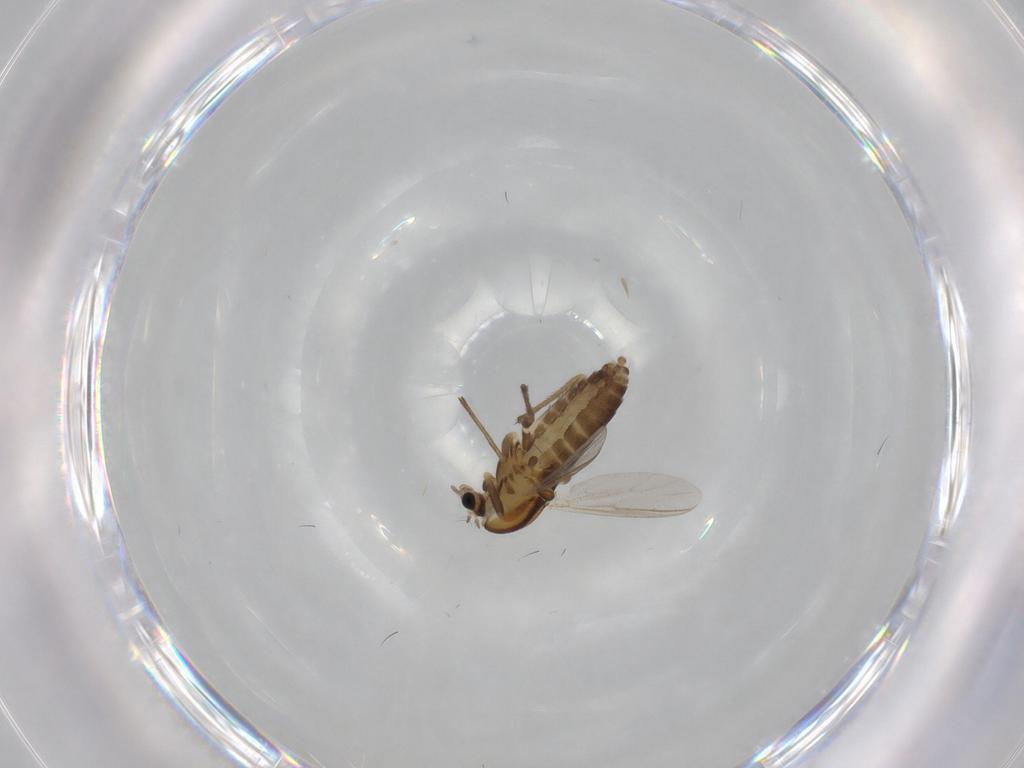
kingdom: Animalia
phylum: Arthropoda
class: Insecta
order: Diptera
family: Chironomidae
